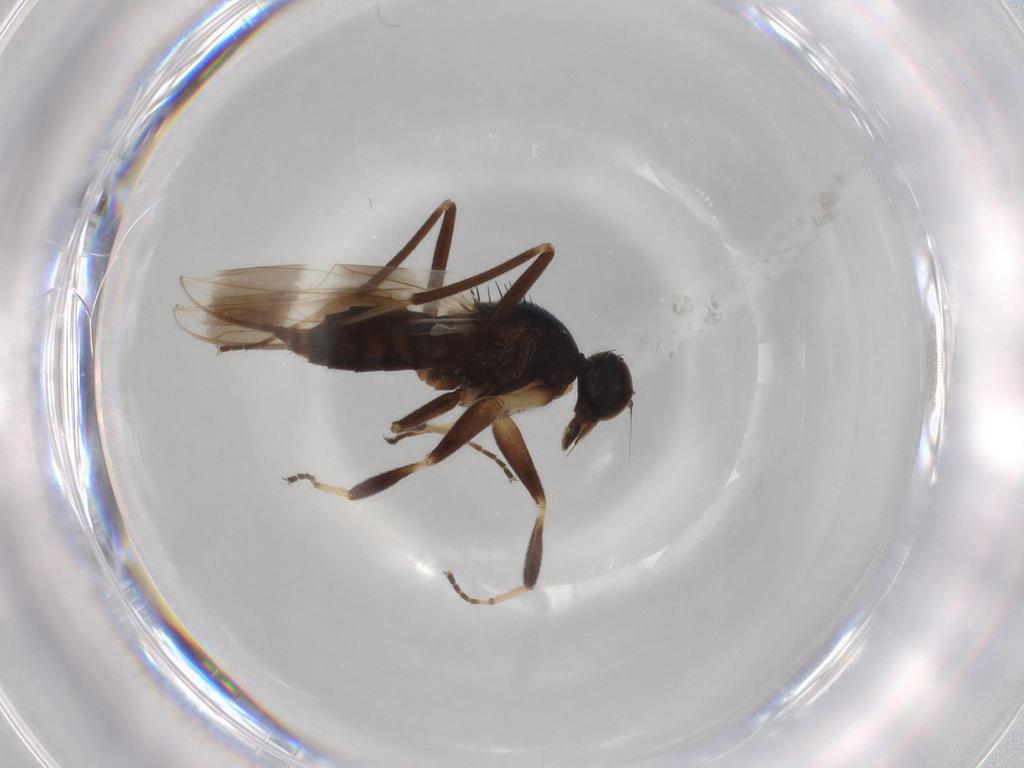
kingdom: Animalia
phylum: Arthropoda
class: Insecta
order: Diptera
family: Hybotidae
